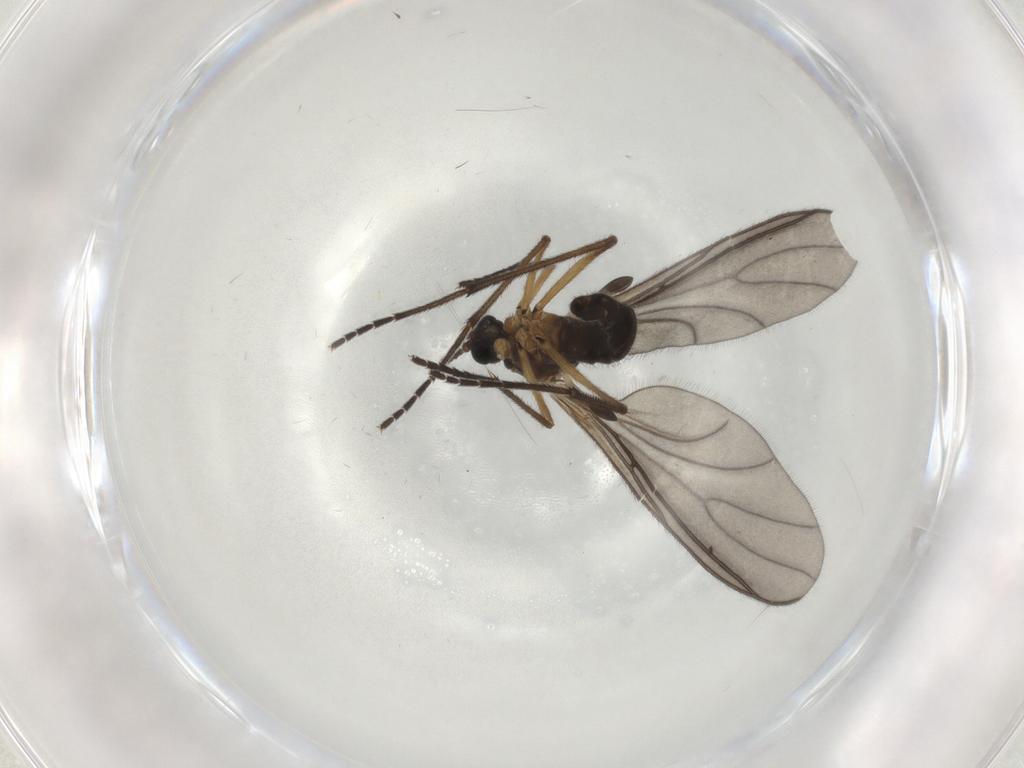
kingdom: Animalia
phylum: Arthropoda
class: Insecta
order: Diptera
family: Sciaridae
